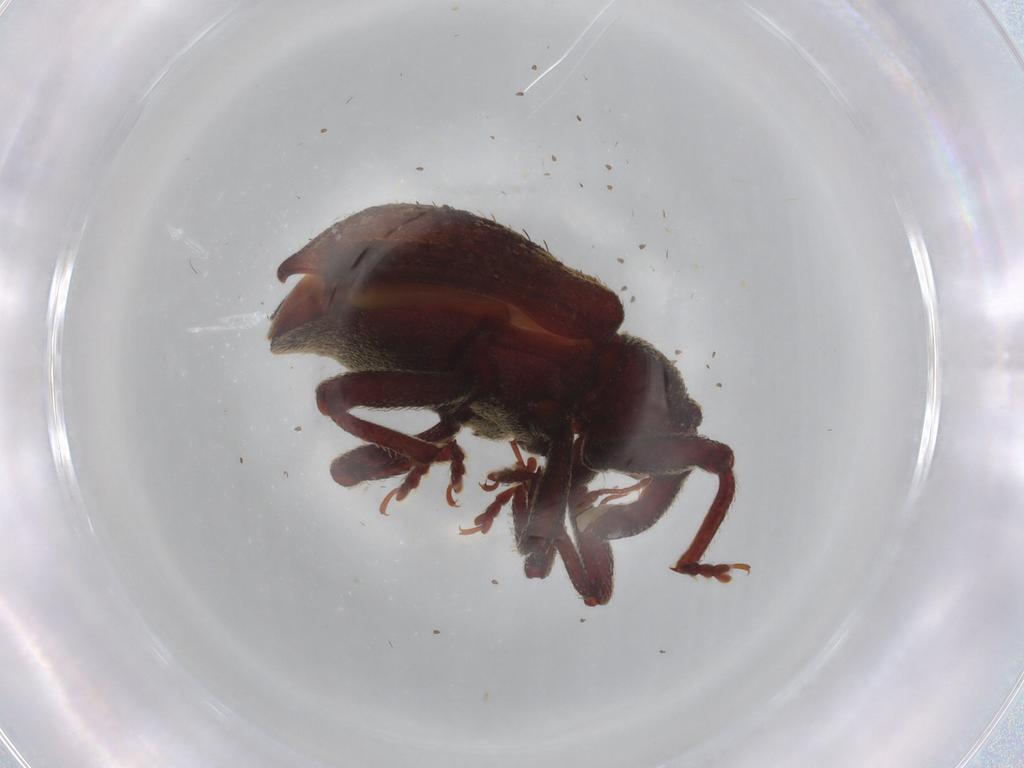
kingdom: Animalia
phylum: Arthropoda
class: Insecta
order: Coleoptera
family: Curculionidae
